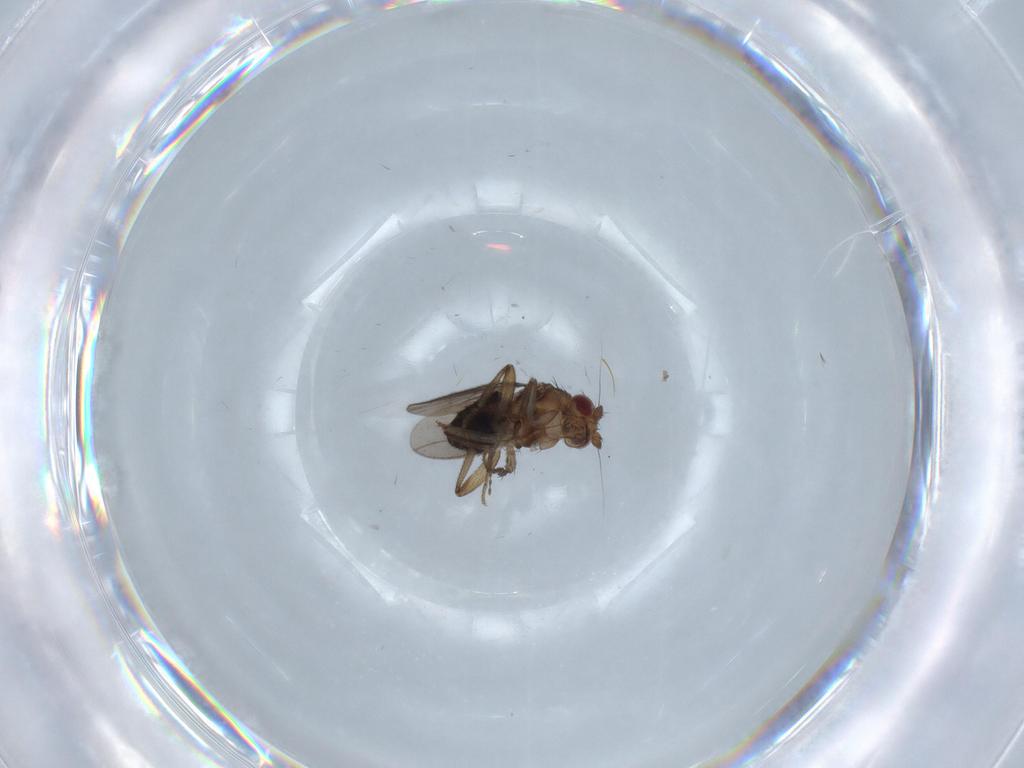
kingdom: Animalia
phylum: Arthropoda
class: Insecta
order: Diptera
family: Sphaeroceridae
